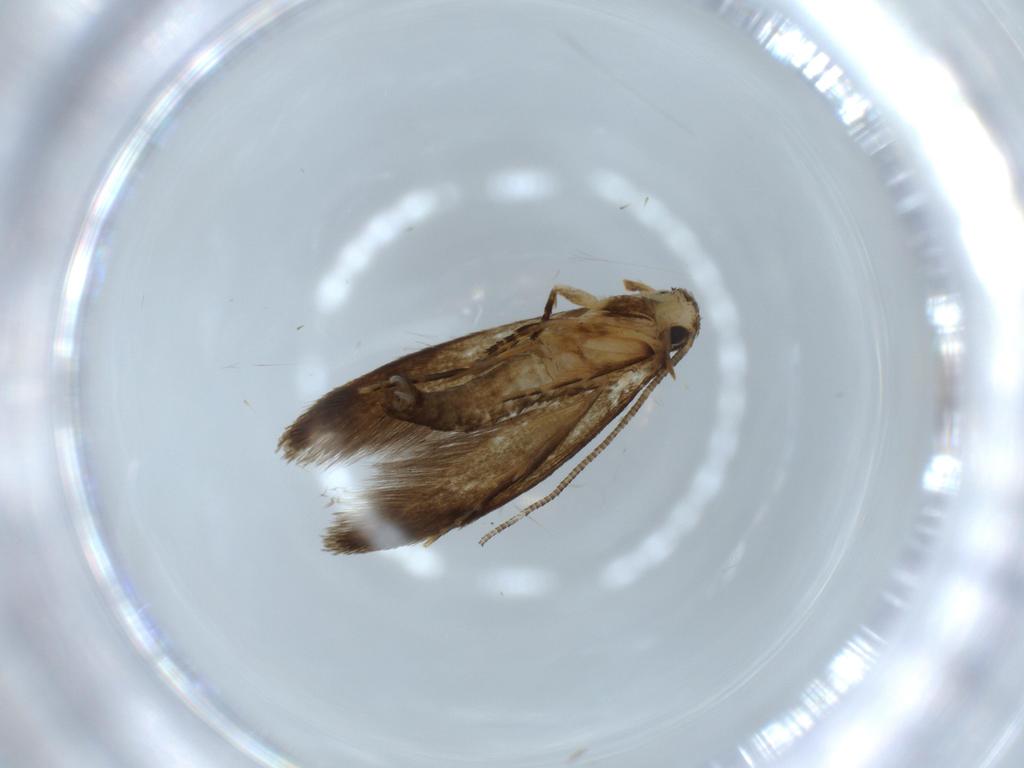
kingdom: Animalia
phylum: Arthropoda
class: Insecta
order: Lepidoptera
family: Tineidae
